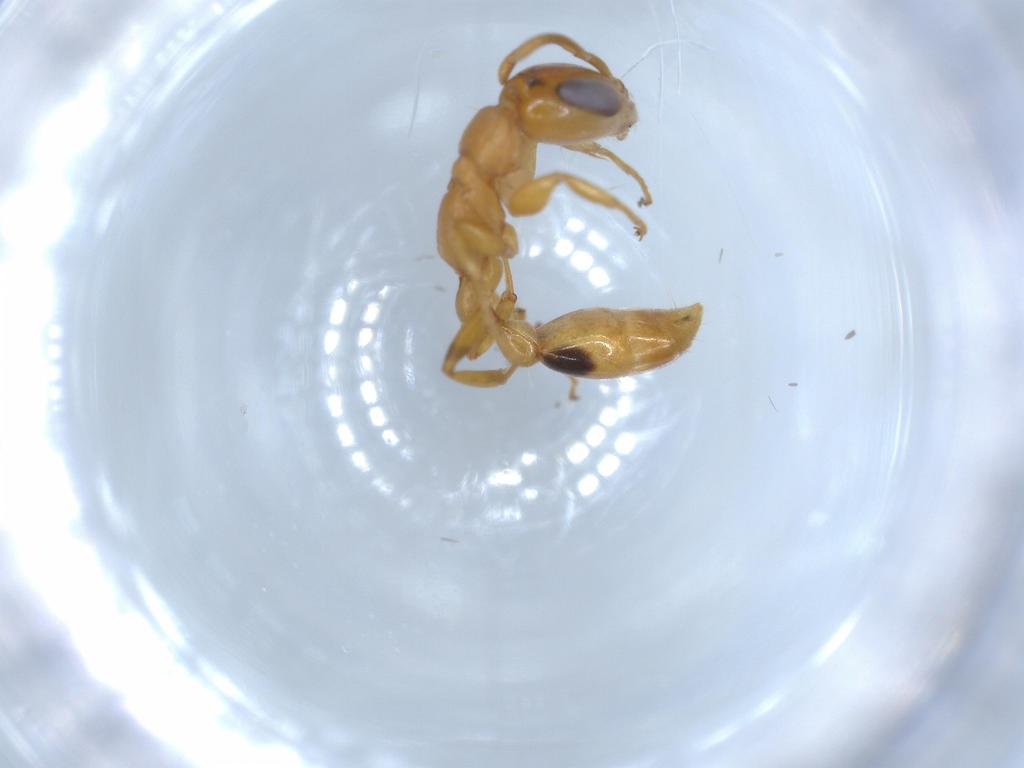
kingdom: Animalia
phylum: Arthropoda
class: Insecta
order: Hymenoptera
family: Formicidae
